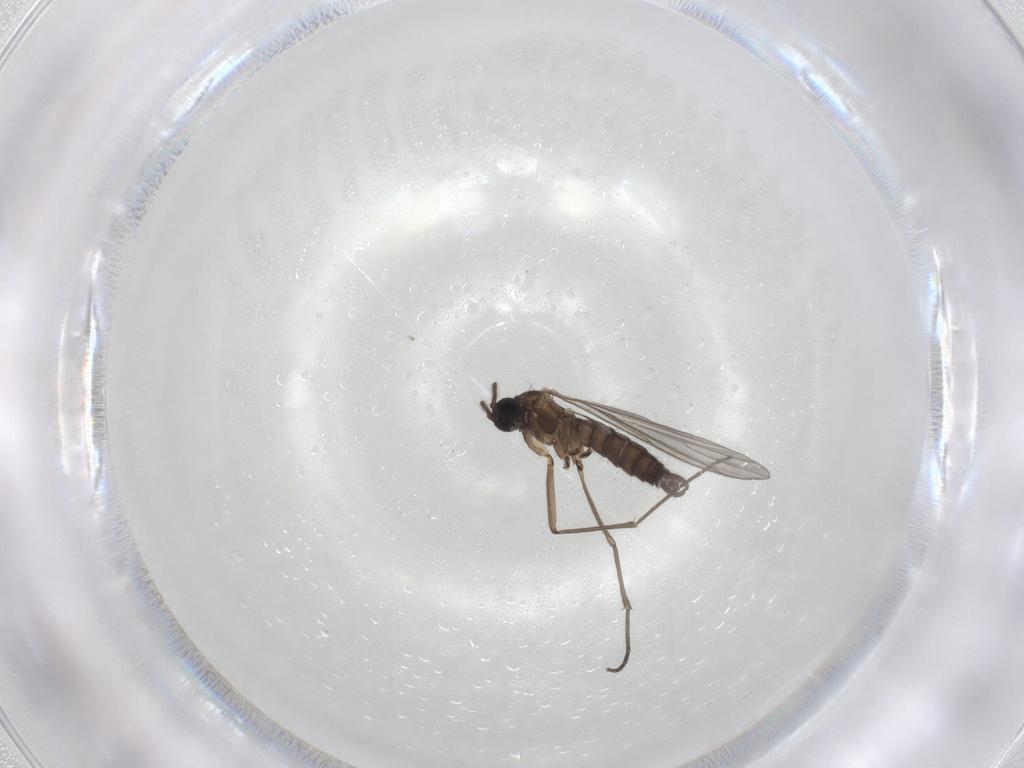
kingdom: Animalia
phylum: Arthropoda
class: Insecta
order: Diptera
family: Sciaridae
